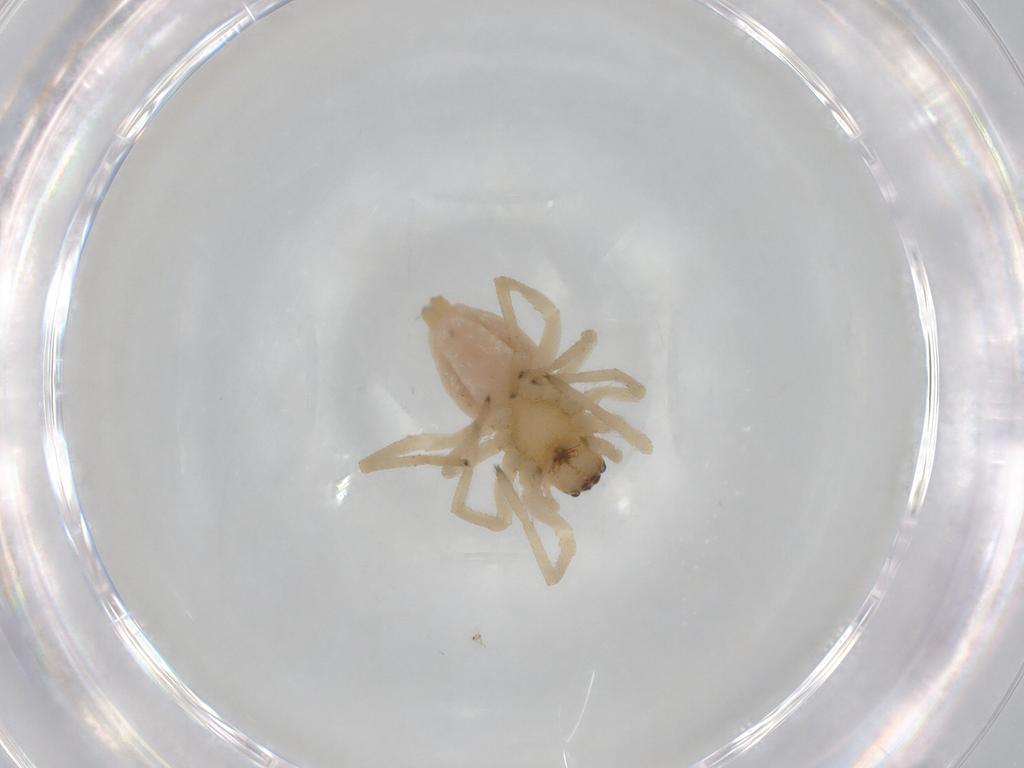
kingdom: Animalia
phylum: Arthropoda
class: Arachnida
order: Araneae
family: Cheiracanthiidae
